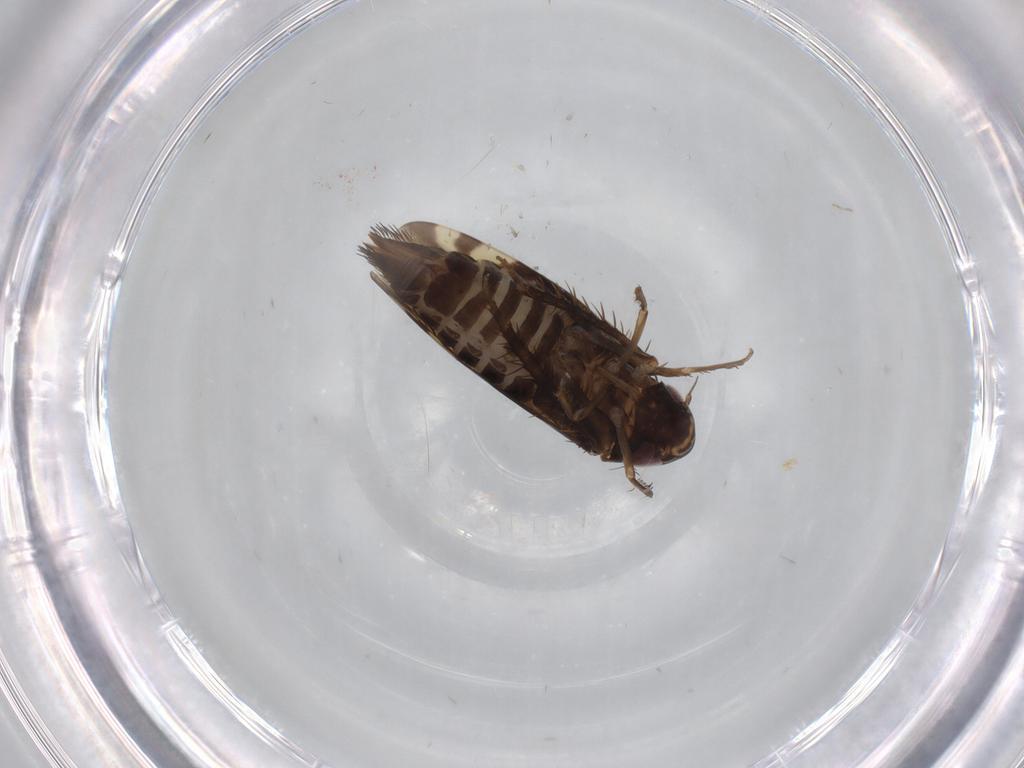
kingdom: Animalia
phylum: Arthropoda
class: Insecta
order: Hemiptera
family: Cicadellidae
